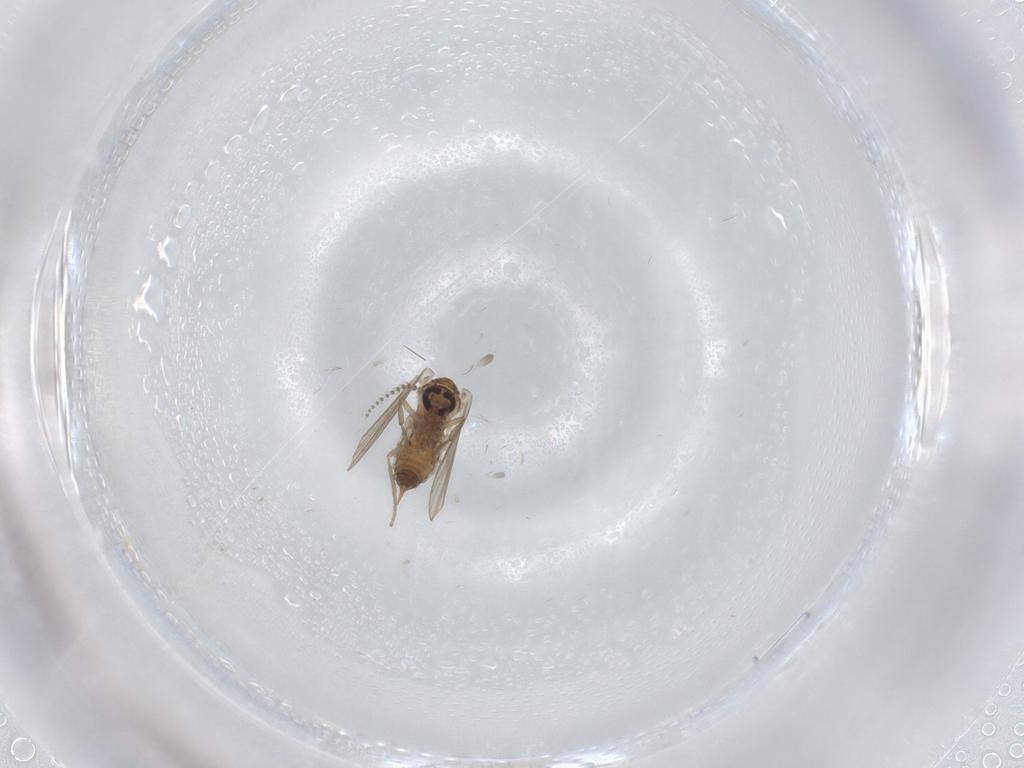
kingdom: Animalia
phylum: Arthropoda
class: Insecta
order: Diptera
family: Psychodidae
